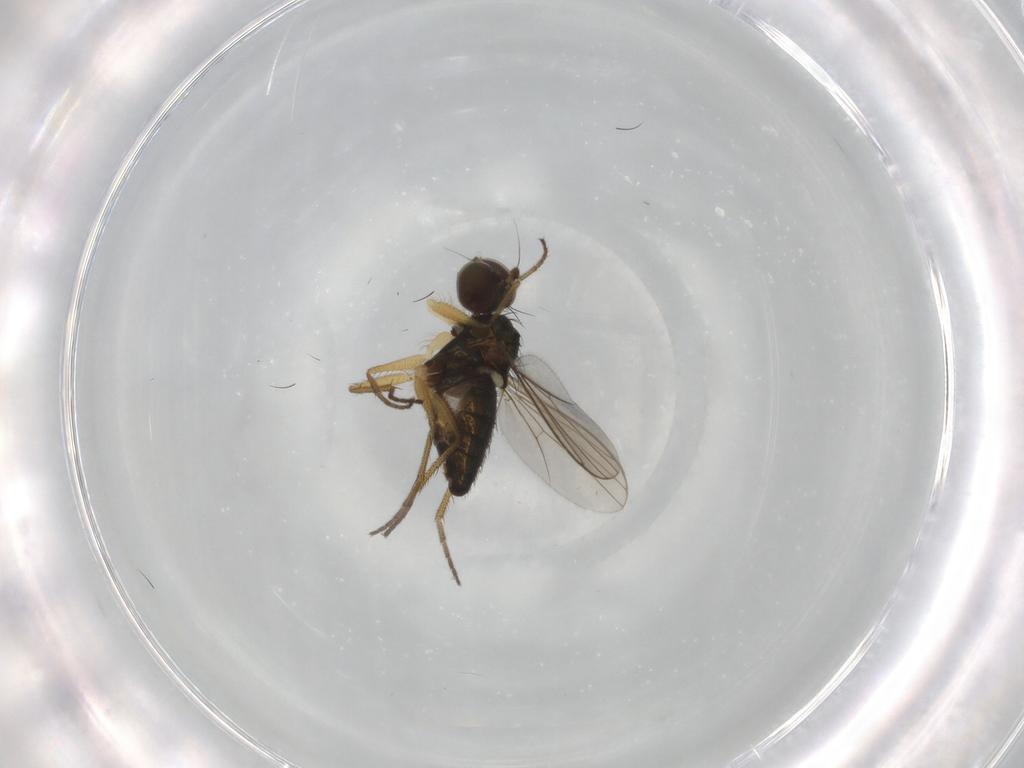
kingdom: Animalia
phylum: Arthropoda
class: Insecta
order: Diptera
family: Dolichopodidae
